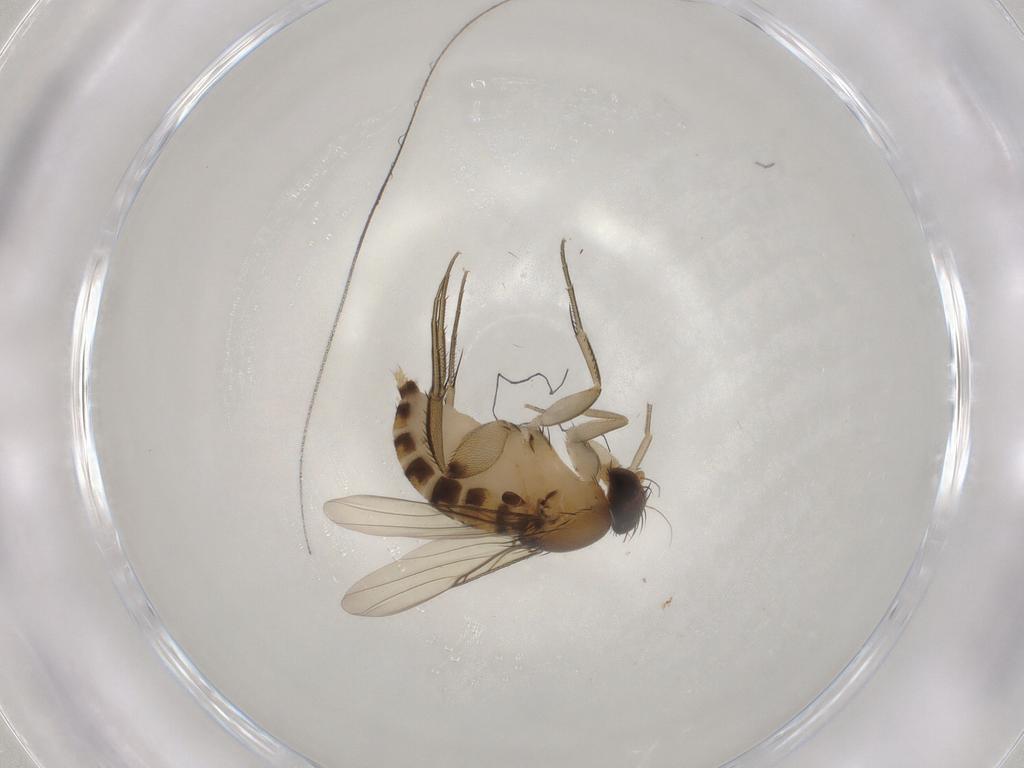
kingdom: Animalia
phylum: Arthropoda
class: Insecta
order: Diptera
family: Phoridae
